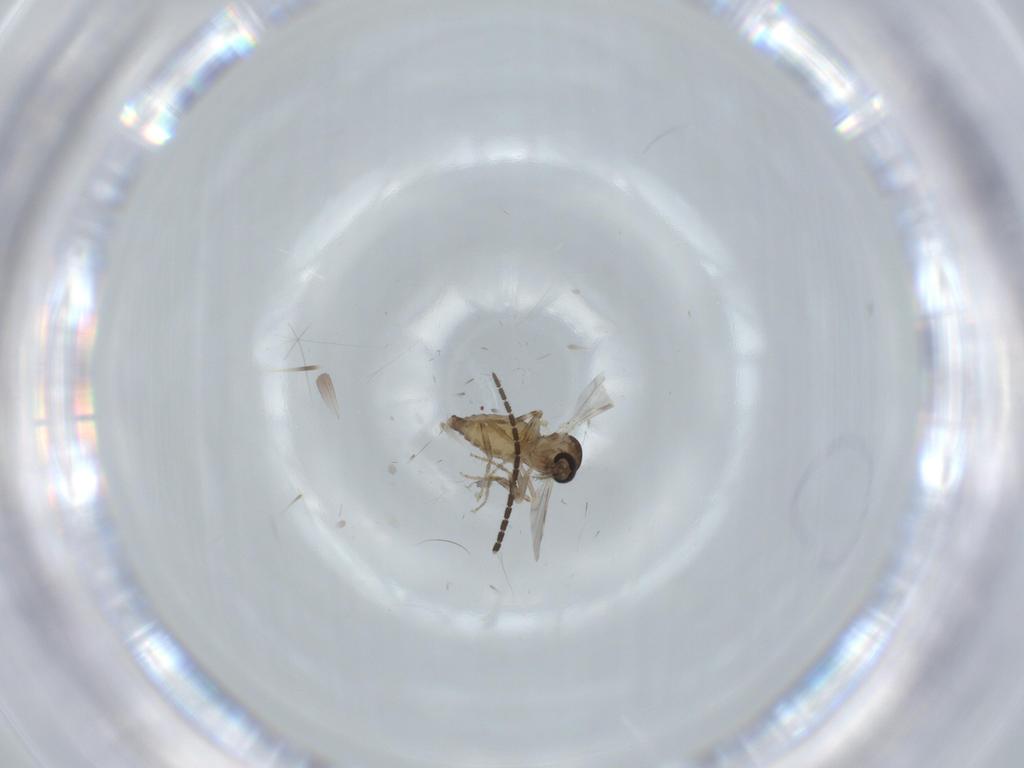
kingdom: Animalia
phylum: Arthropoda
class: Insecta
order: Diptera
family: Ceratopogonidae
